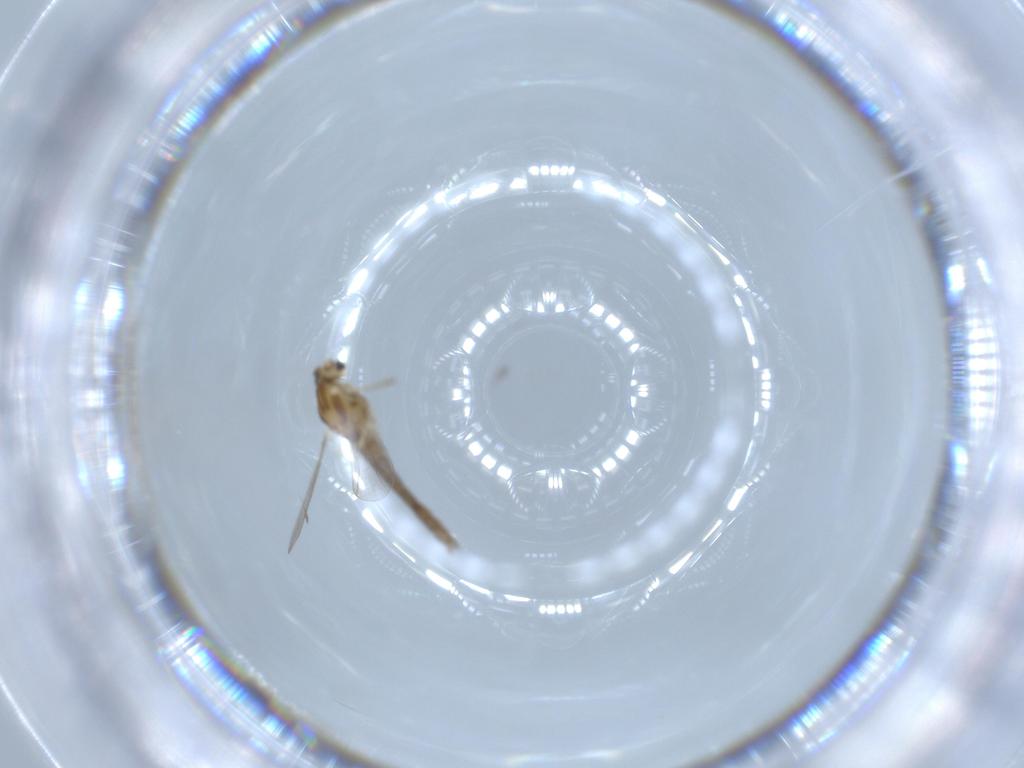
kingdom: Animalia
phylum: Arthropoda
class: Insecta
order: Diptera
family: Chironomidae
